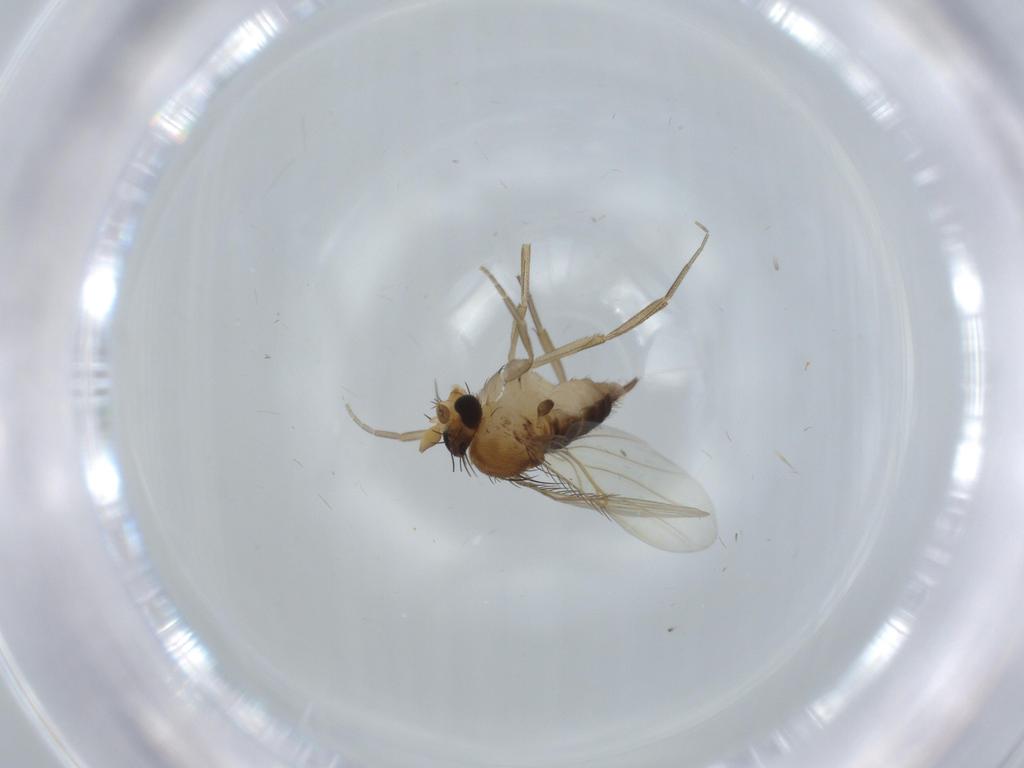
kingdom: Animalia
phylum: Arthropoda
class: Insecta
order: Diptera
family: Phoridae
